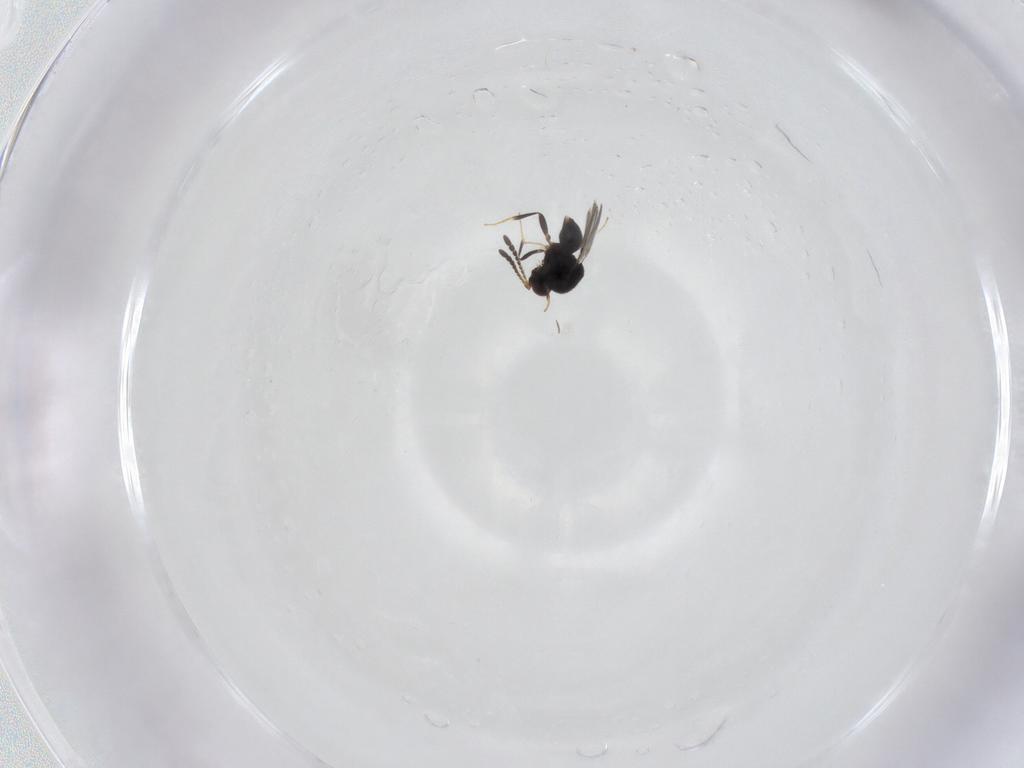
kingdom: Animalia
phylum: Arthropoda
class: Insecta
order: Hymenoptera
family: Ceraphronidae
